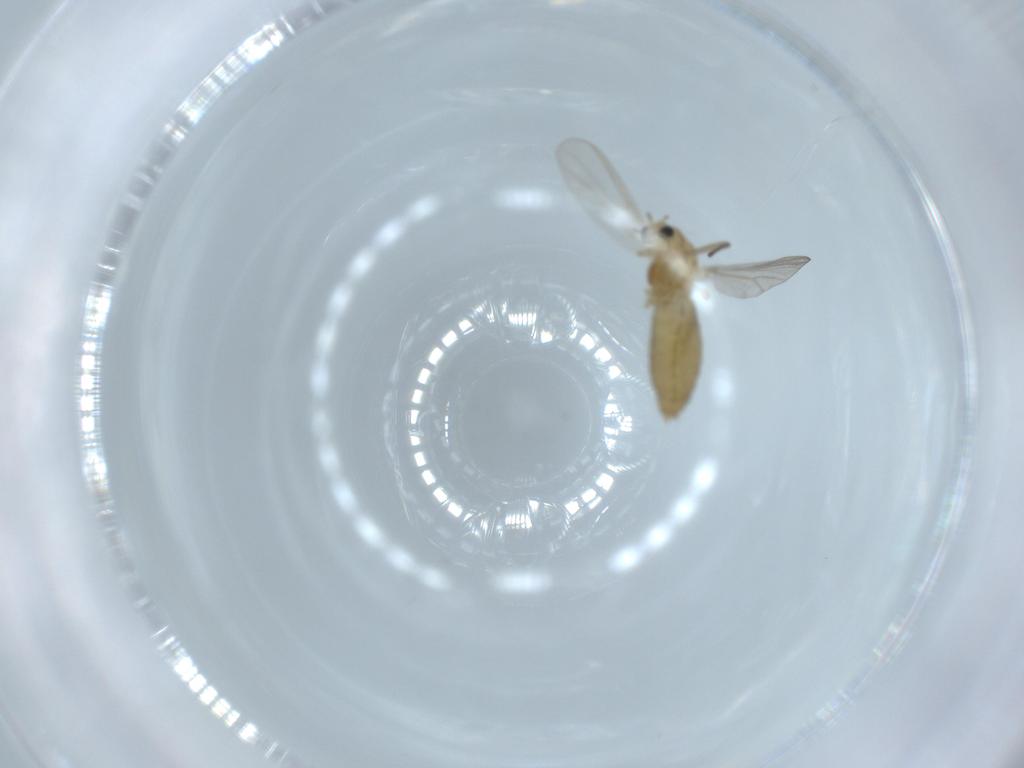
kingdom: Animalia
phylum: Arthropoda
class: Insecta
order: Diptera
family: Chironomidae
